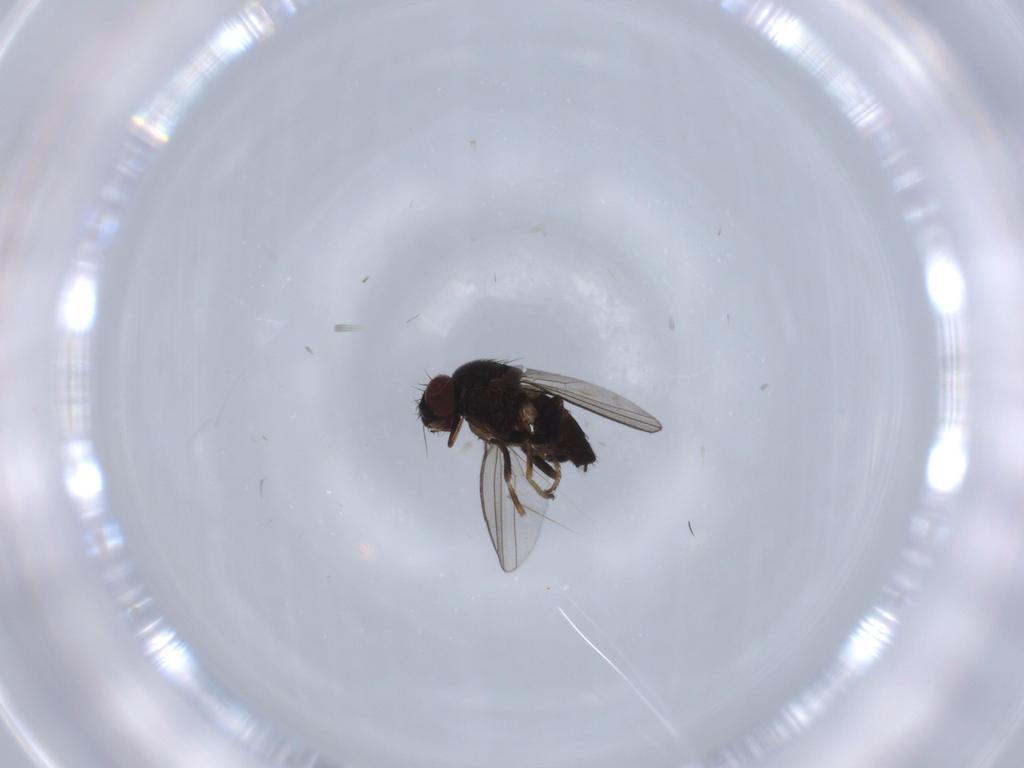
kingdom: Animalia
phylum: Arthropoda
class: Insecta
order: Diptera
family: Milichiidae
